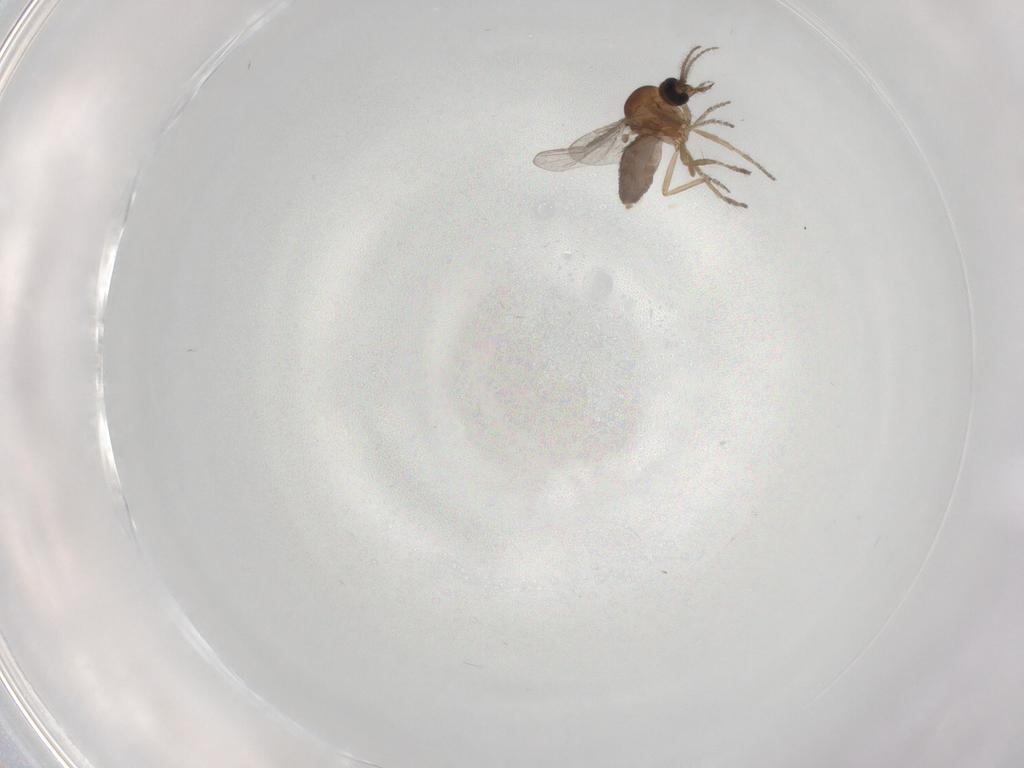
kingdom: Animalia
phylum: Arthropoda
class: Insecta
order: Diptera
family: Ceratopogonidae
